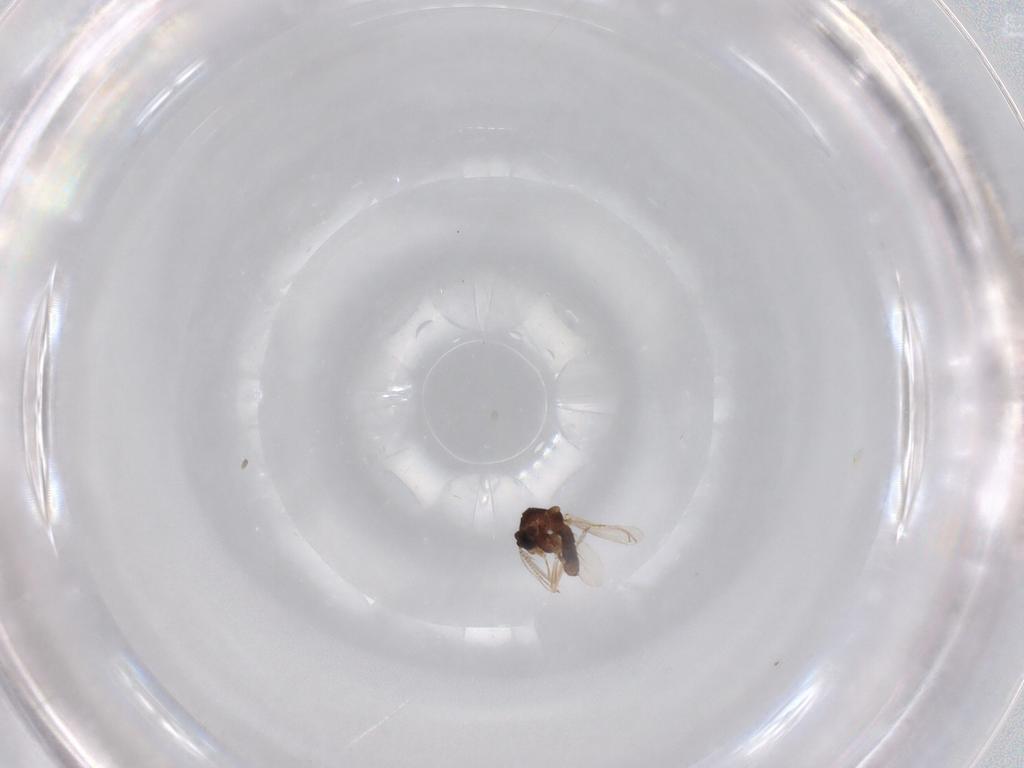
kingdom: Animalia
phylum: Arthropoda
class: Insecta
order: Diptera
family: Ceratopogonidae
